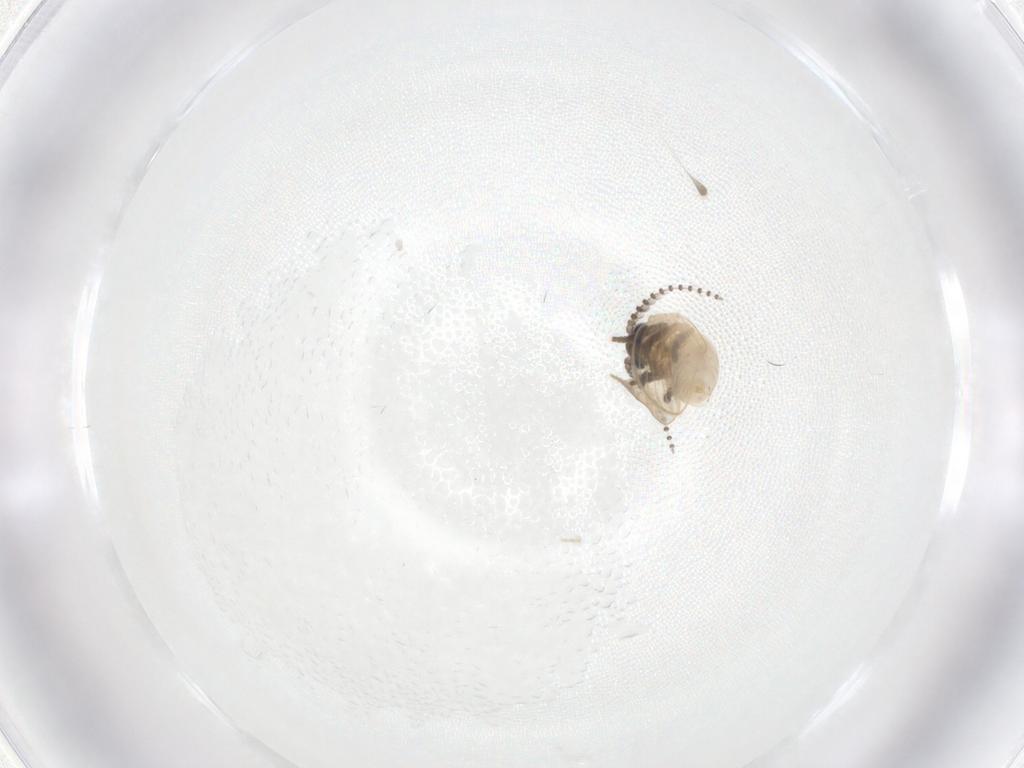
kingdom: Animalia
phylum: Arthropoda
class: Insecta
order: Diptera
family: Psychodidae
